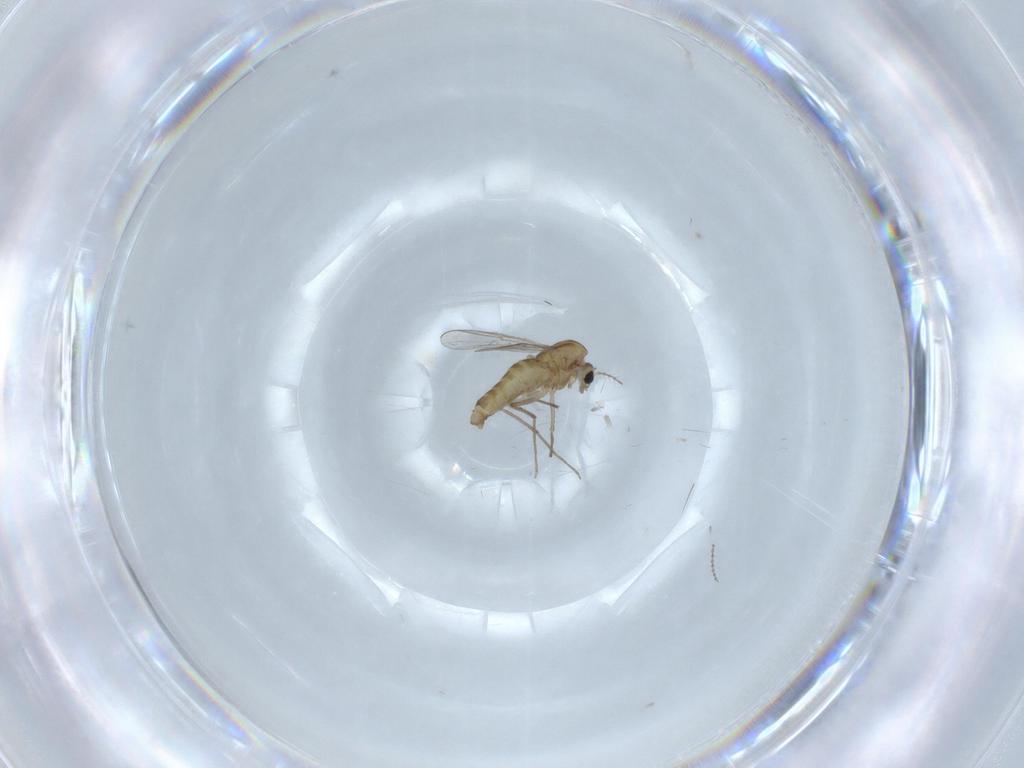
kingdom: Animalia
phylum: Arthropoda
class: Insecta
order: Diptera
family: Chironomidae
